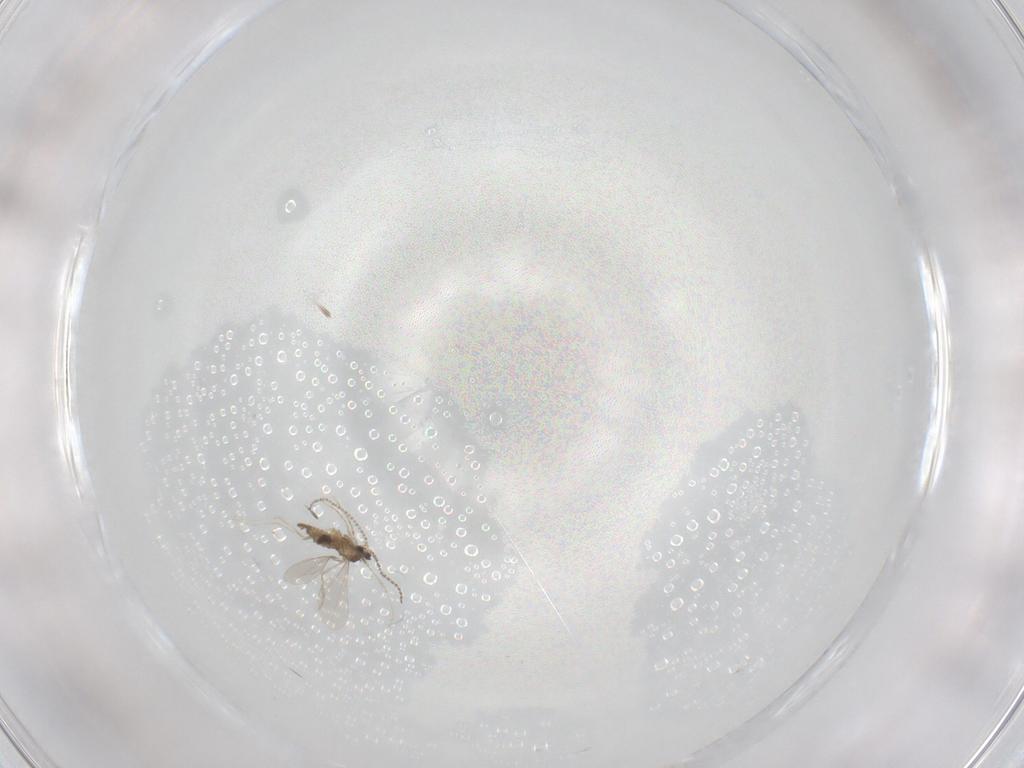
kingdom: Animalia
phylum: Arthropoda
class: Insecta
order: Diptera
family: Cecidomyiidae
